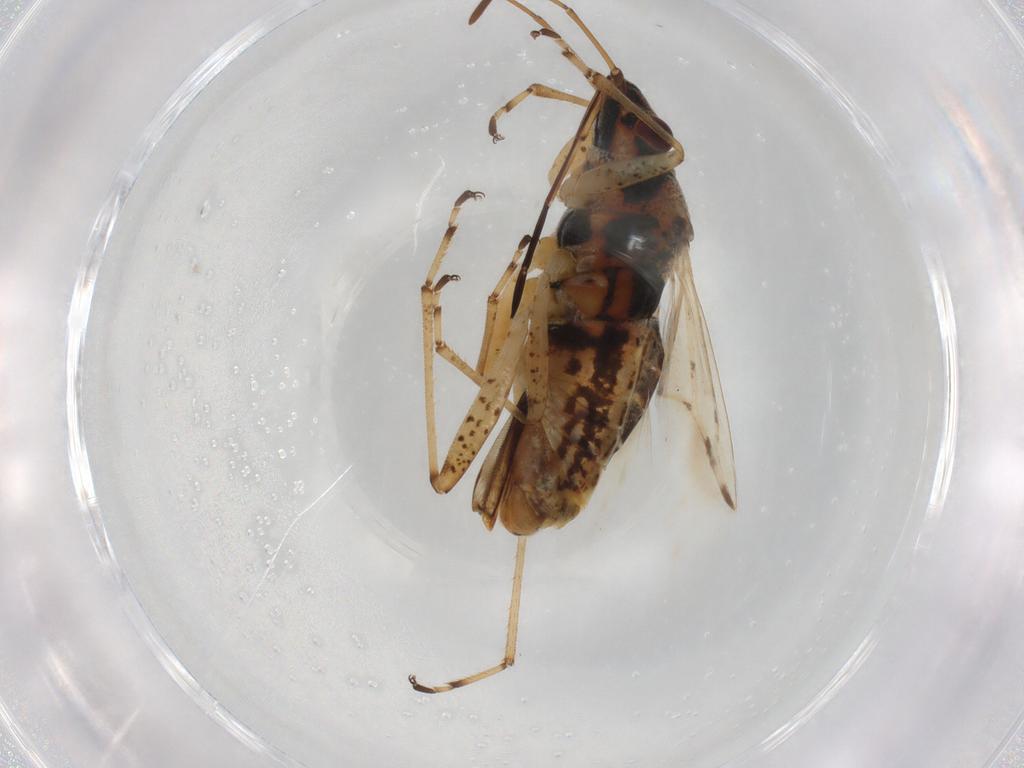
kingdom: Animalia
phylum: Arthropoda
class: Insecta
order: Hemiptera
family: Lygaeidae
